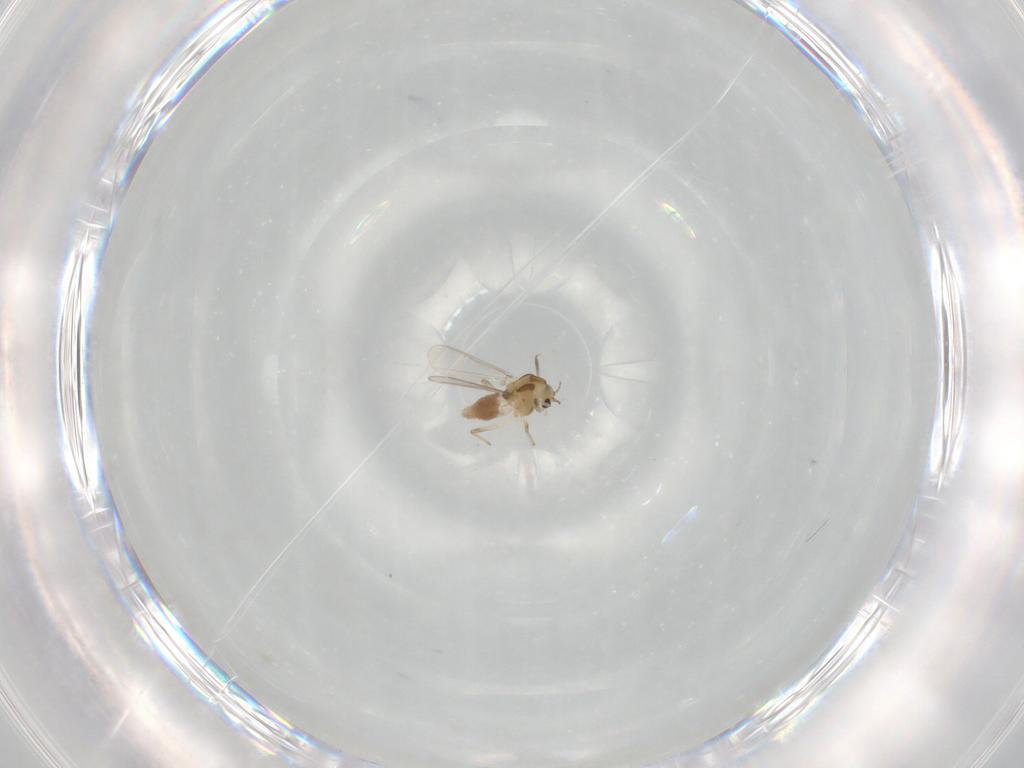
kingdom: Animalia
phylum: Arthropoda
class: Insecta
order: Diptera
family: Chironomidae
